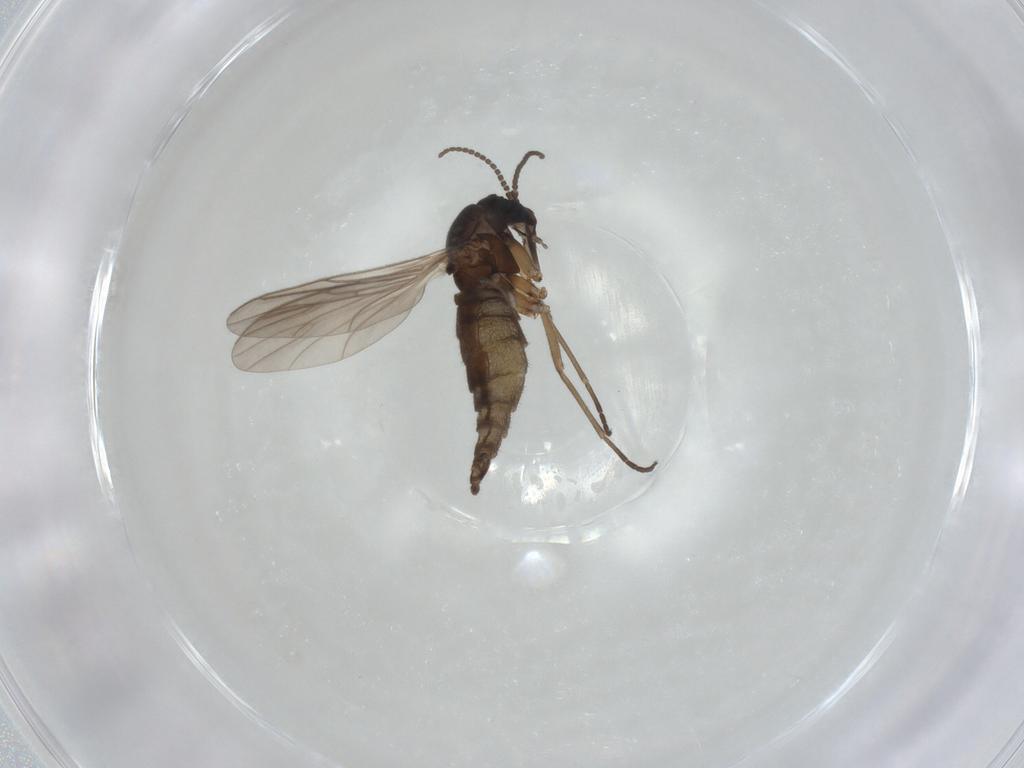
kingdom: Animalia
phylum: Arthropoda
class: Insecta
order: Diptera
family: Sciaridae
